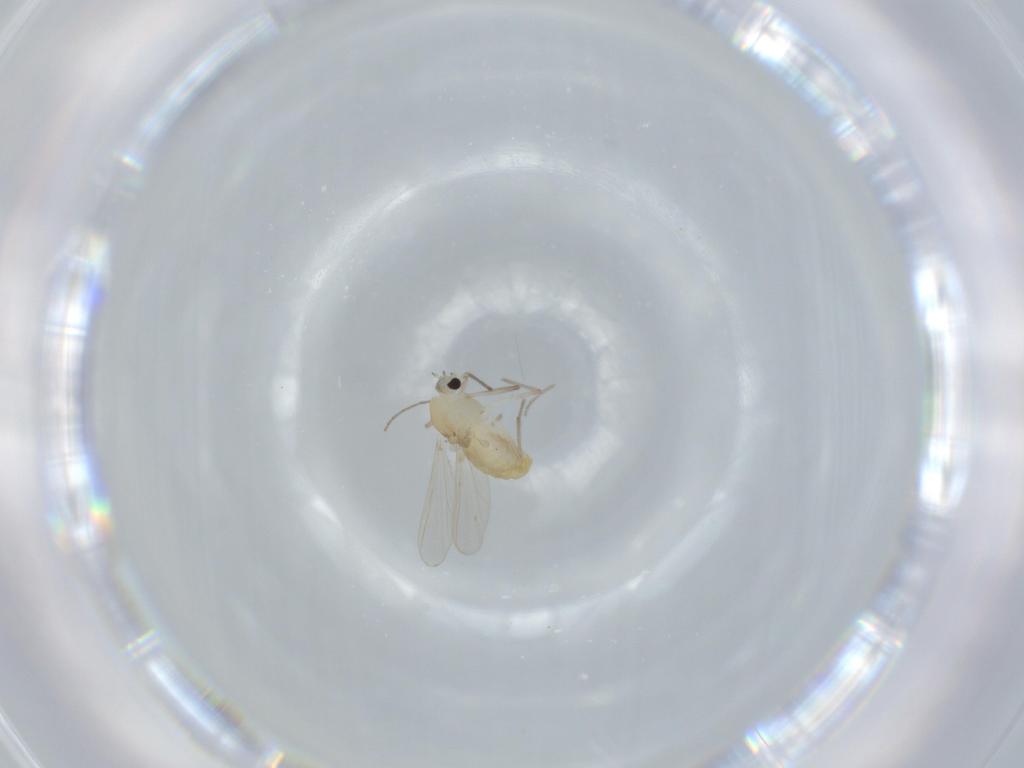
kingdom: Animalia
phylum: Arthropoda
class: Insecta
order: Diptera
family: Chironomidae
